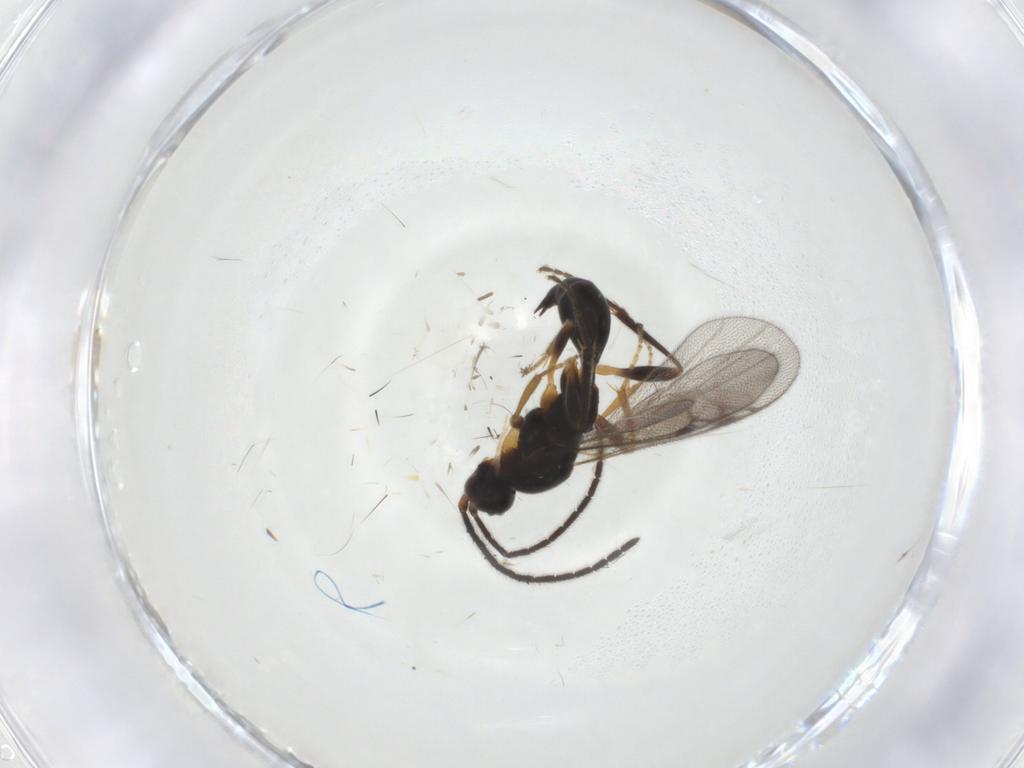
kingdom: Animalia
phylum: Arthropoda
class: Insecta
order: Hymenoptera
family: Proctotrupidae
